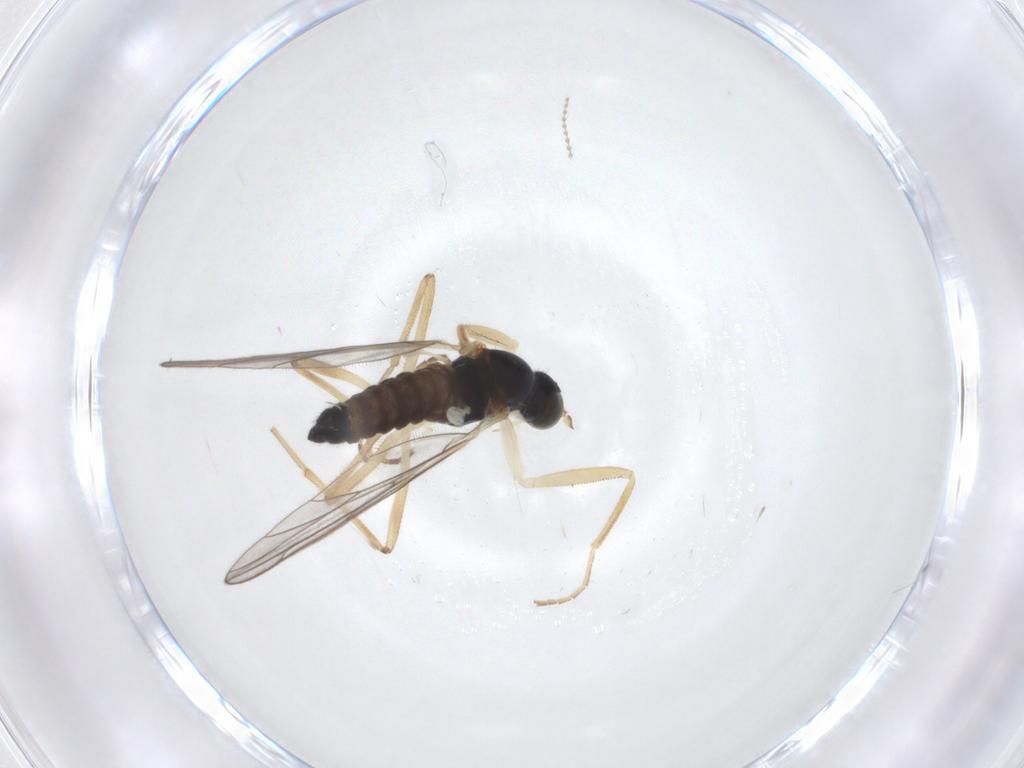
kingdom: Animalia
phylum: Arthropoda
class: Insecta
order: Diptera
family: Empididae
